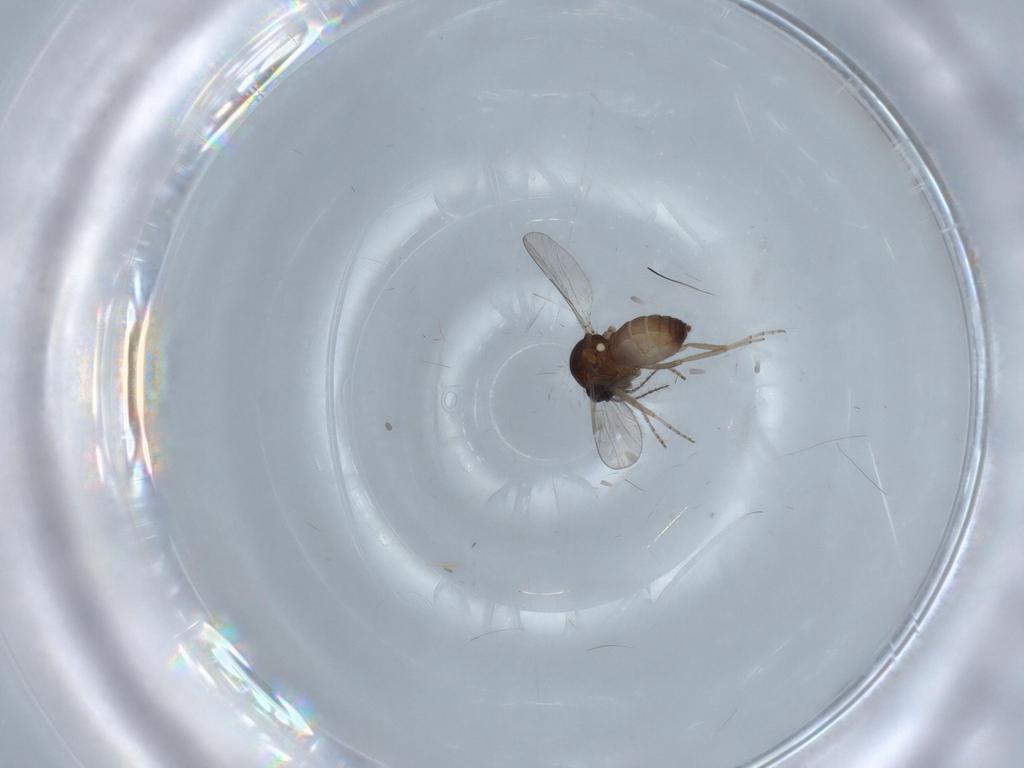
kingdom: Animalia
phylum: Arthropoda
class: Insecta
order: Diptera
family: Ceratopogonidae
